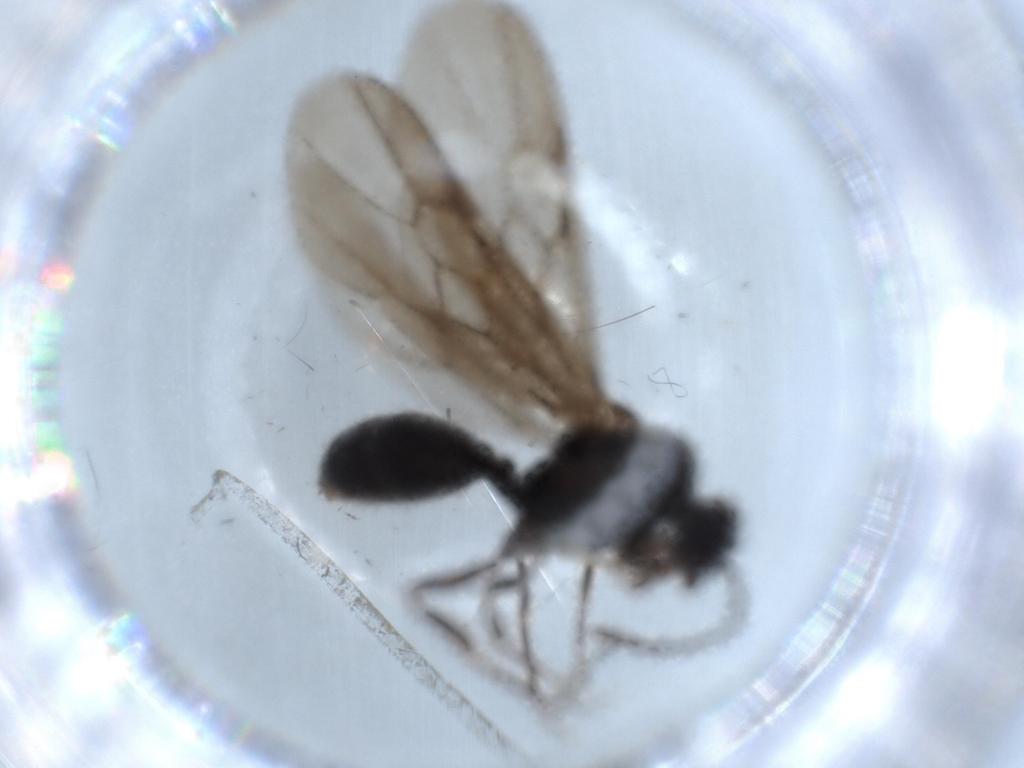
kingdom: Animalia
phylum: Arthropoda
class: Insecta
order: Hymenoptera
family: Formicidae
